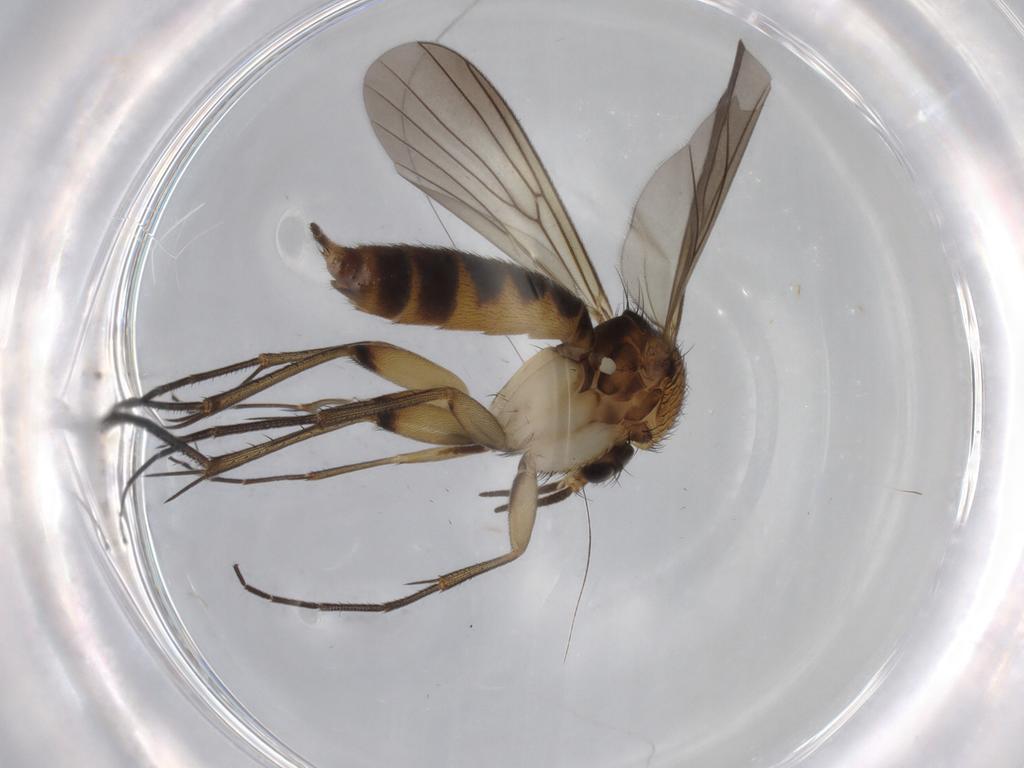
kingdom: Animalia
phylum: Arthropoda
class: Insecta
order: Diptera
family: Mycetophilidae
